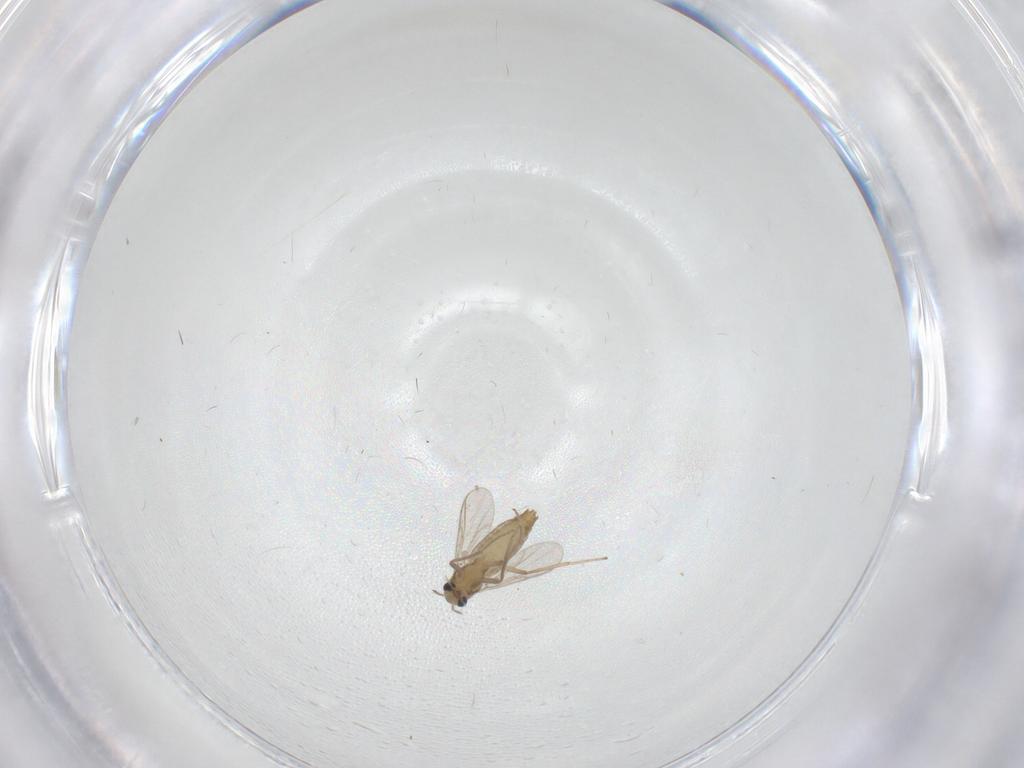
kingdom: Animalia
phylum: Arthropoda
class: Insecta
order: Diptera
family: Chironomidae
